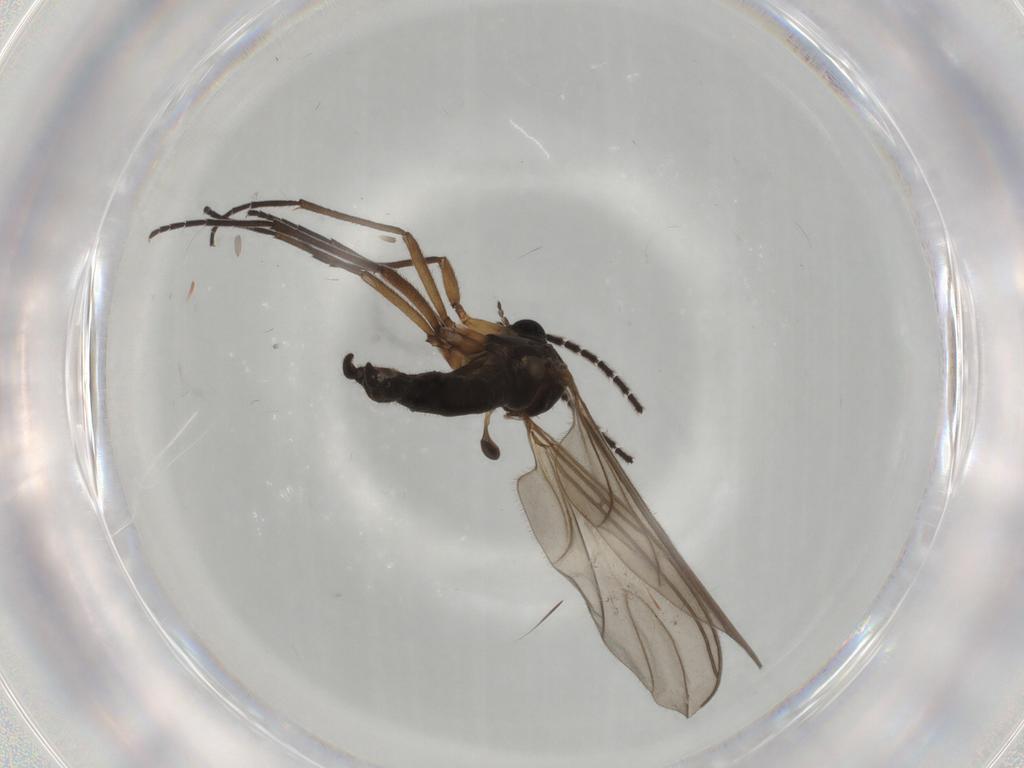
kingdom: Animalia
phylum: Arthropoda
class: Insecta
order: Diptera
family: Sciaridae
